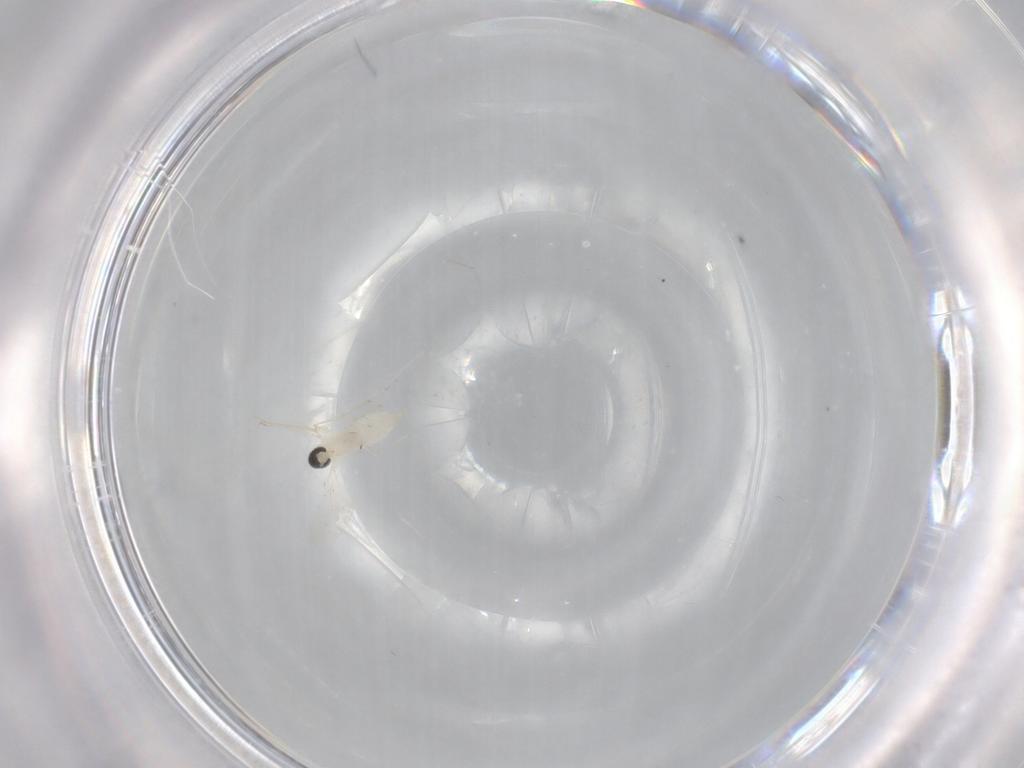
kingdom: Animalia
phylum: Arthropoda
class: Insecta
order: Diptera
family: Cecidomyiidae
